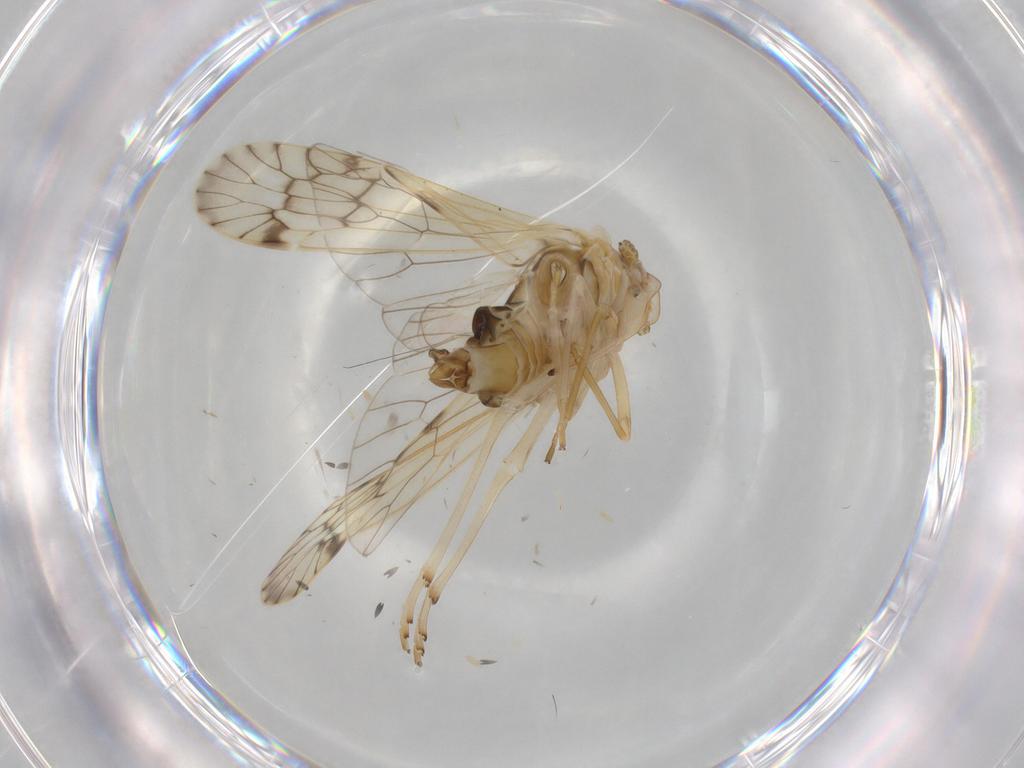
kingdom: Animalia
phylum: Arthropoda
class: Insecta
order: Hemiptera
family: Kinnaridae
